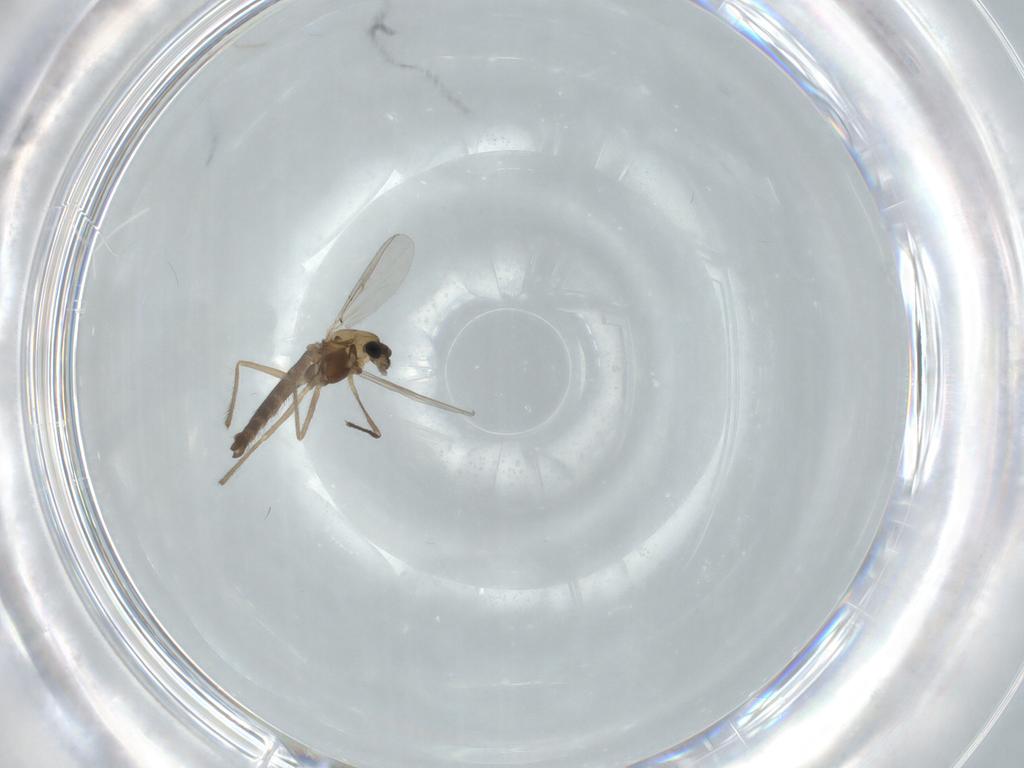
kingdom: Animalia
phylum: Arthropoda
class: Insecta
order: Diptera
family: Chironomidae
